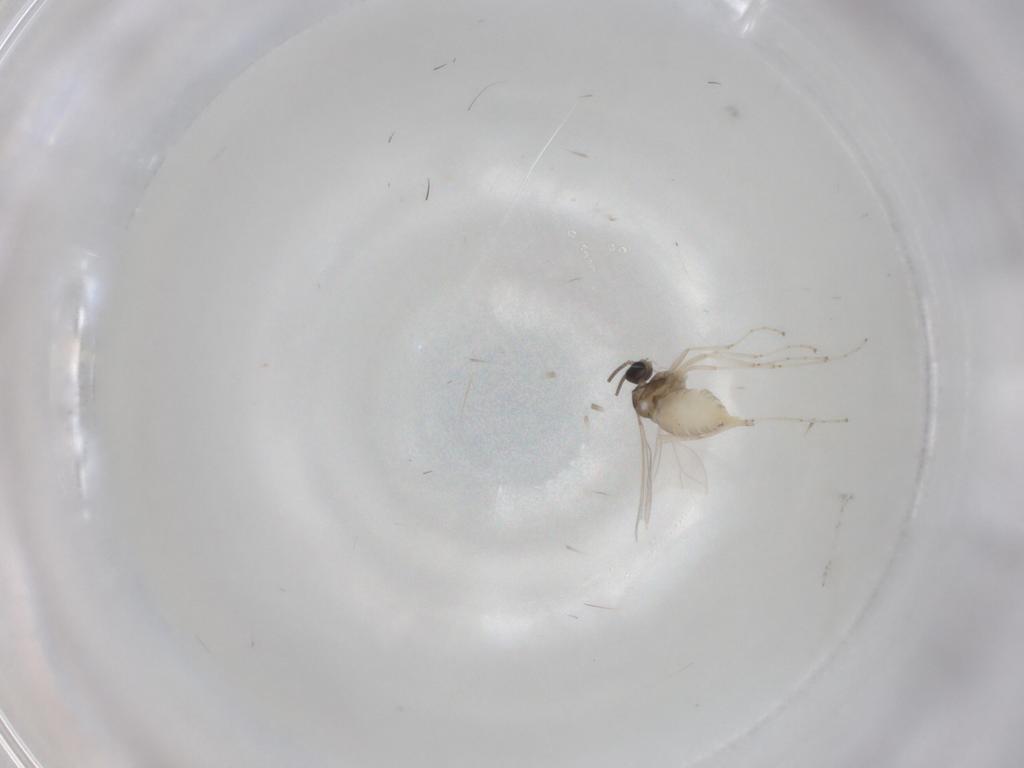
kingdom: Animalia
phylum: Arthropoda
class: Insecta
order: Diptera
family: Cecidomyiidae
